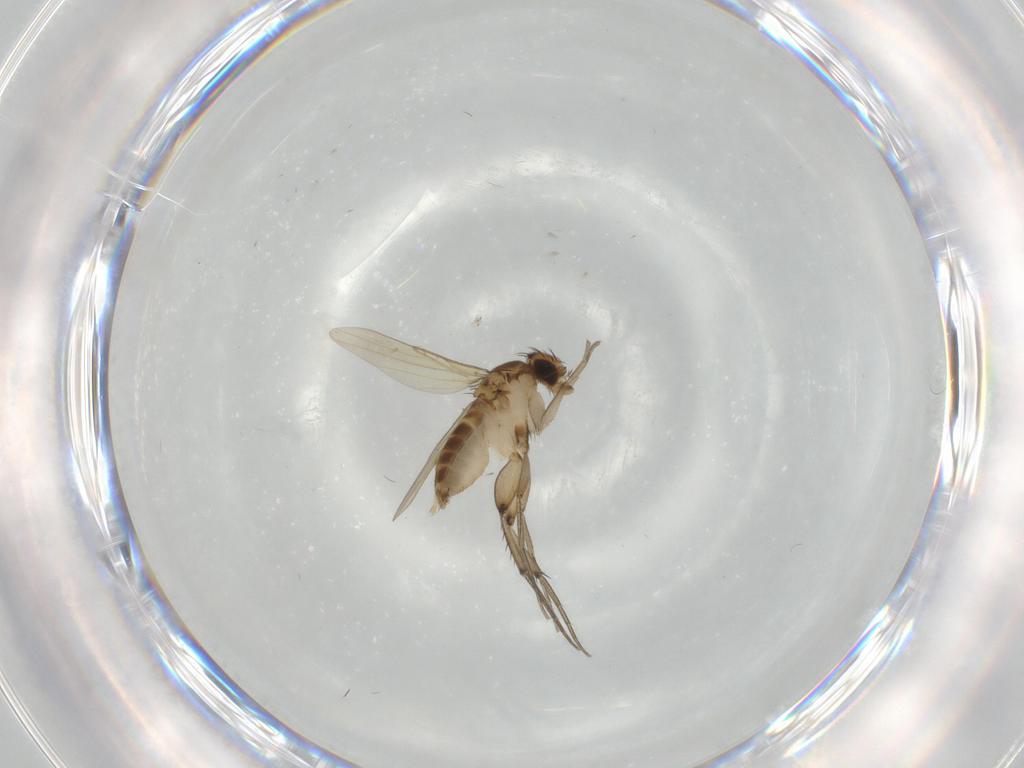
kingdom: Animalia
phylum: Arthropoda
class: Insecta
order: Diptera
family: Phoridae
